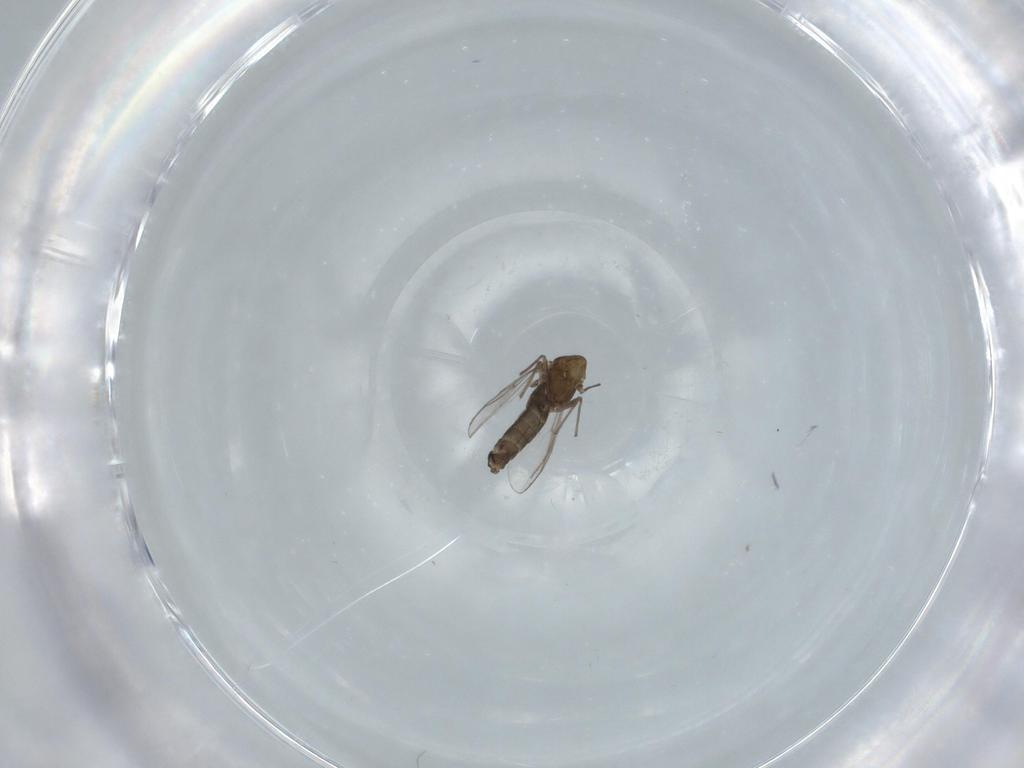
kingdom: Animalia
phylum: Arthropoda
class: Insecta
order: Diptera
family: Chironomidae
